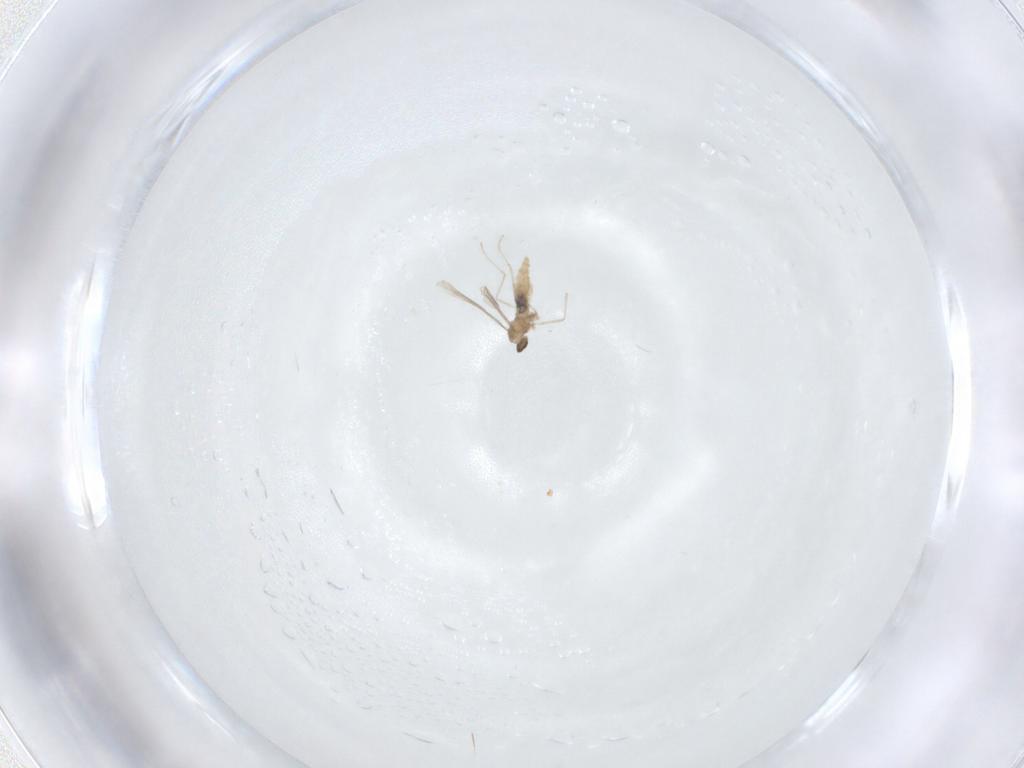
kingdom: Animalia
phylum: Arthropoda
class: Insecta
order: Diptera
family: Cecidomyiidae
